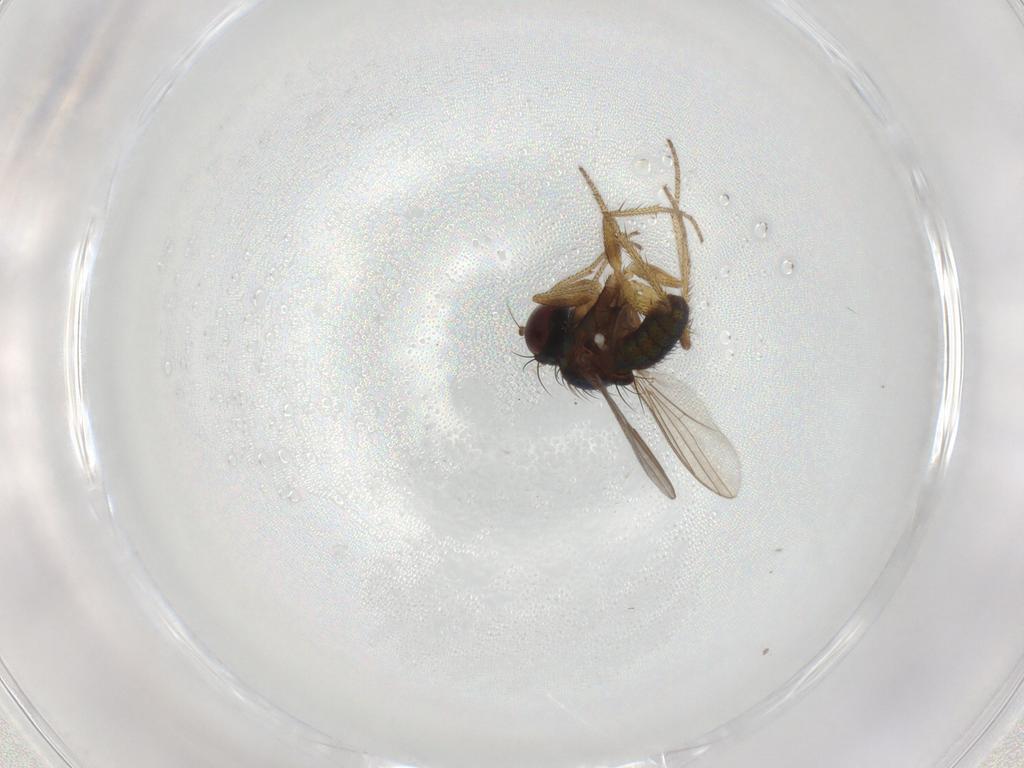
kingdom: Animalia
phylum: Arthropoda
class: Insecta
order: Diptera
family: Dolichopodidae
